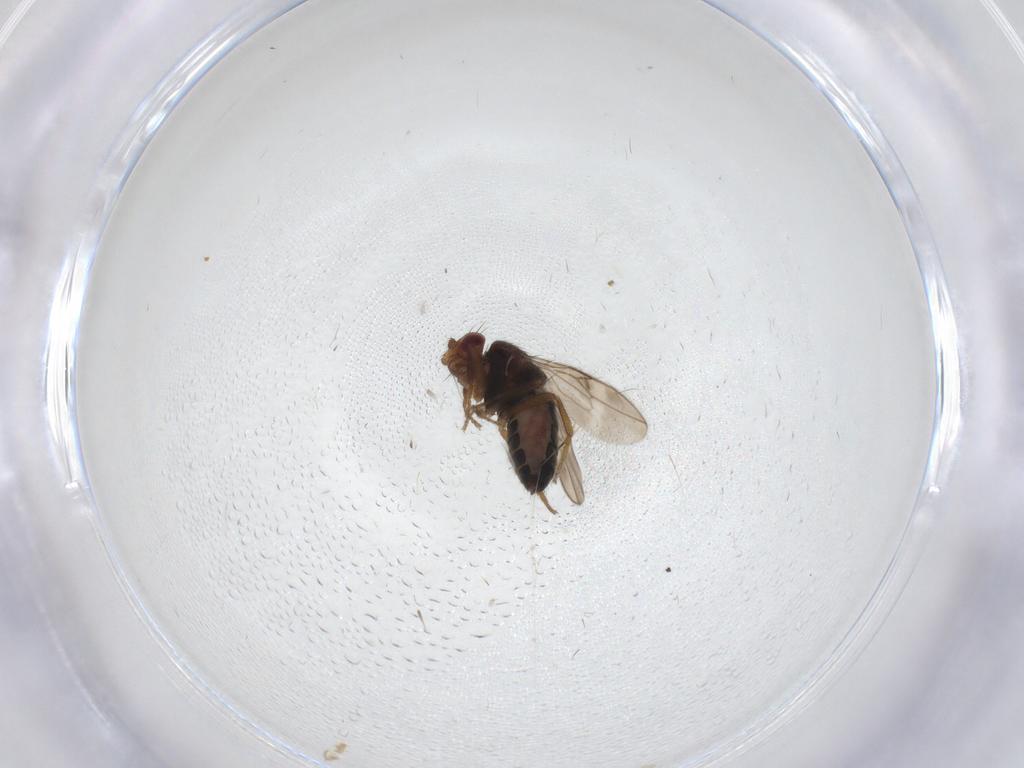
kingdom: Animalia
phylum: Arthropoda
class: Insecta
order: Diptera
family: Sphaeroceridae
